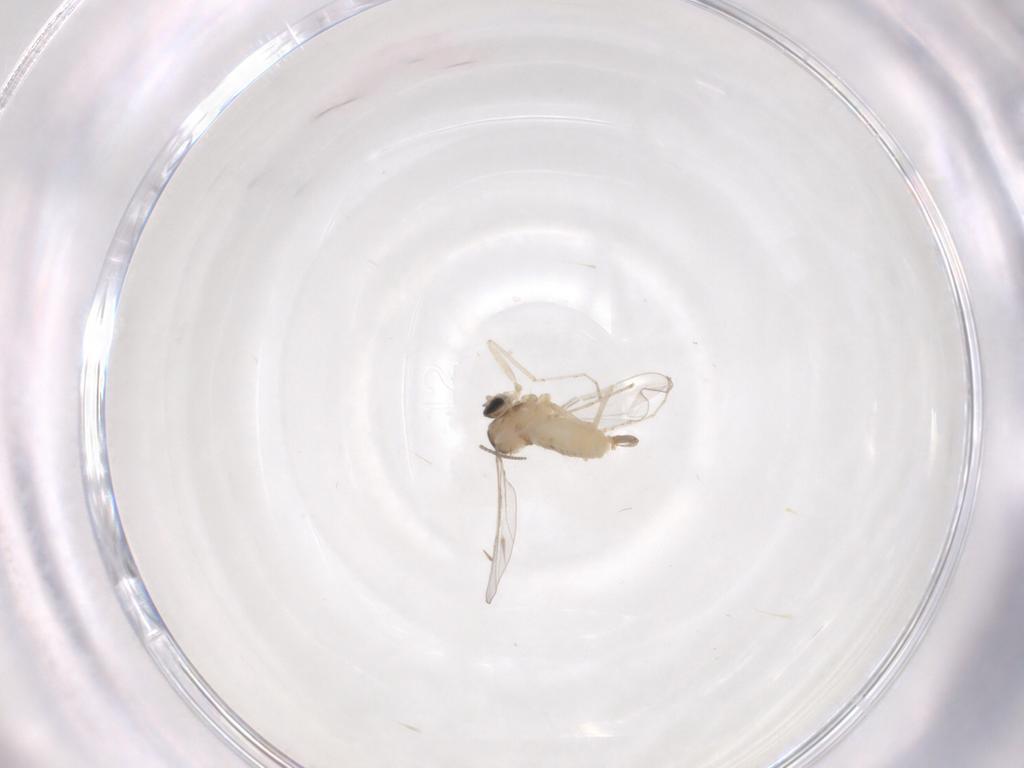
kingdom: Animalia
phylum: Arthropoda
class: Insecta
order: Diptera
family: Cecidomyiidae
